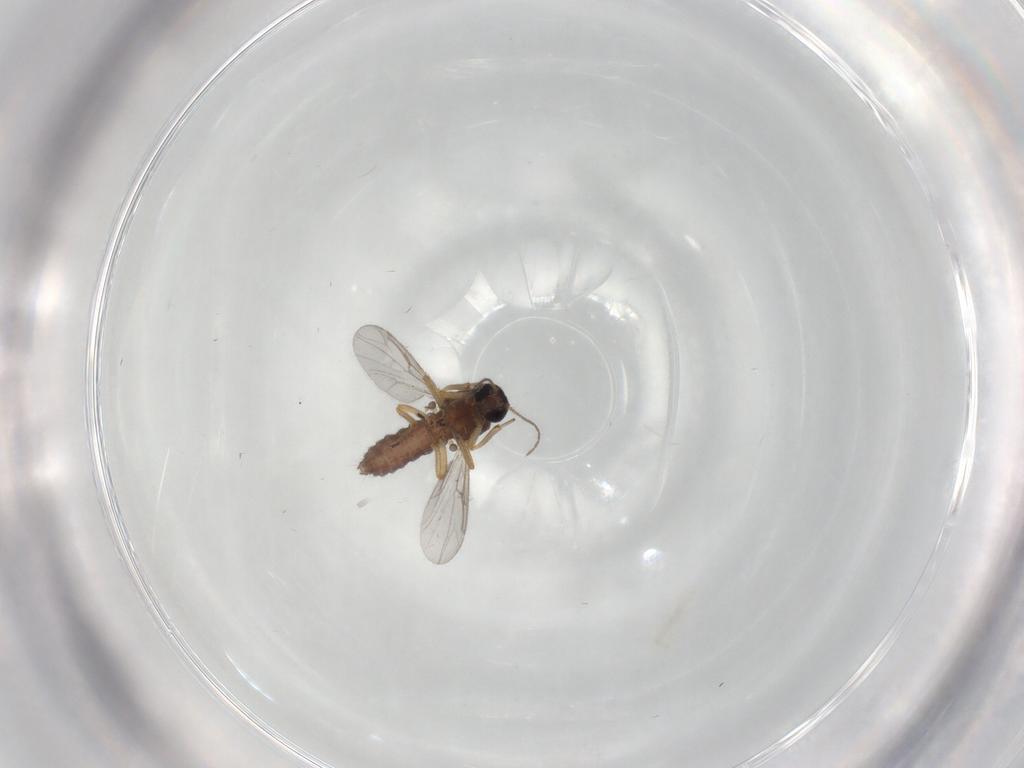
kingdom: Animalia
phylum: Arthropoda
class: Insecta
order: Diptera
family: Ceratopogonidae
